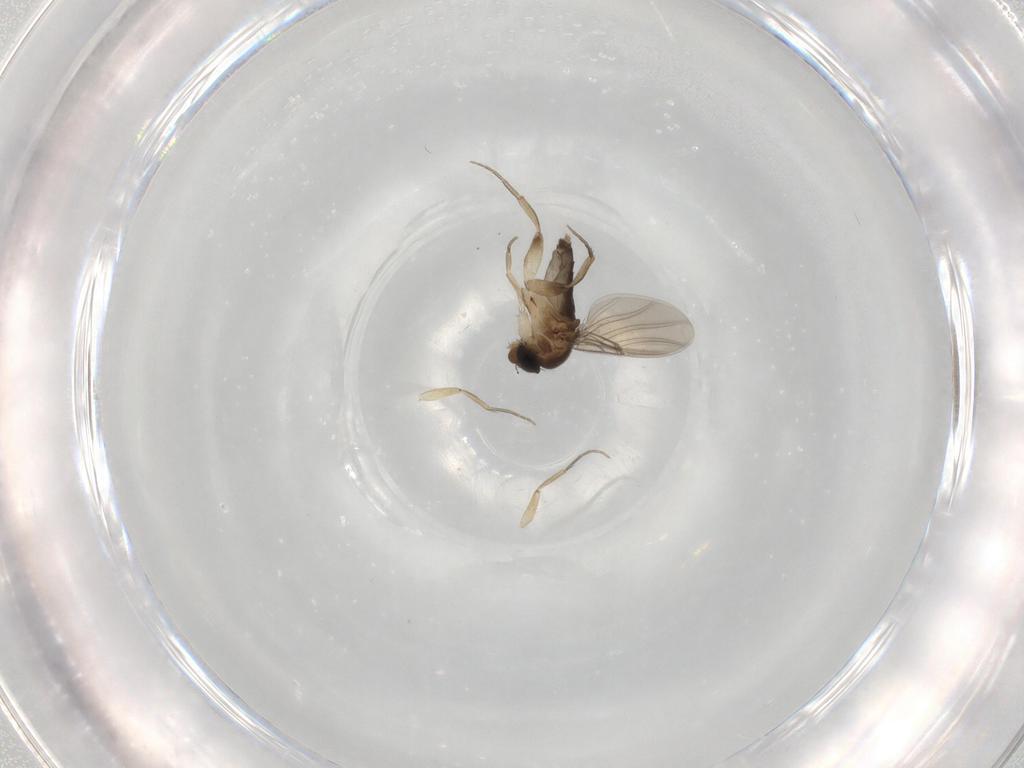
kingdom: Animalia
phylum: Arthropoda
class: Insecta
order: Diptera
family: Phoridae
